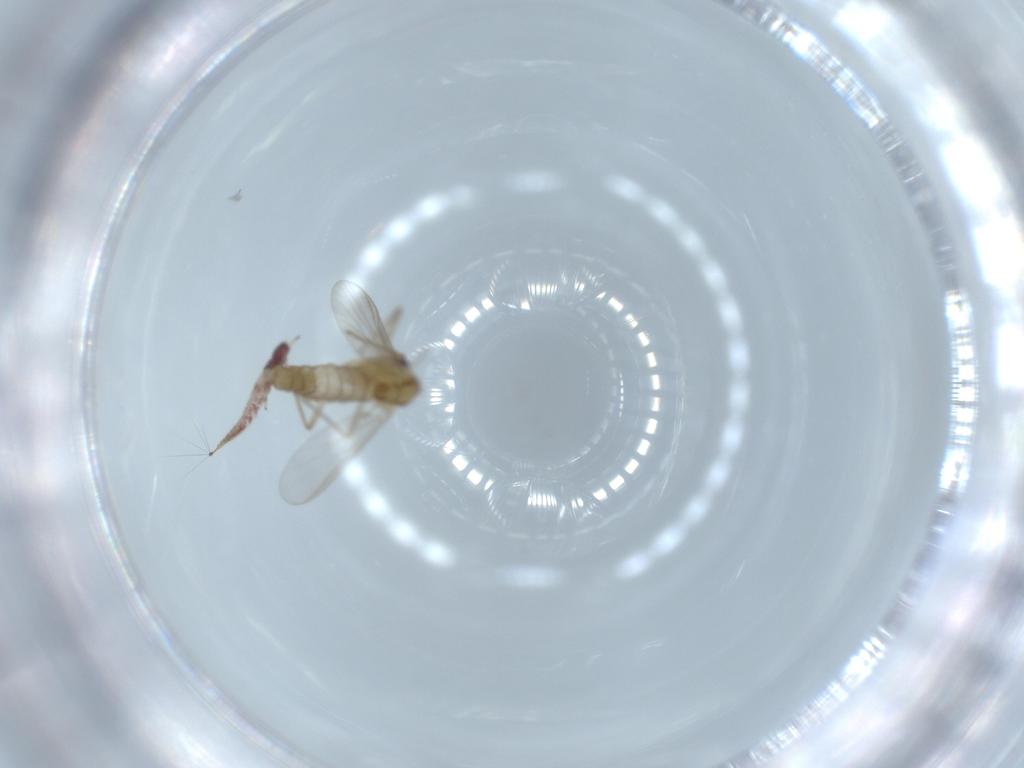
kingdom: Animalia
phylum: Arthropoda
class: Insecta
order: Diptera
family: Chironomidae
